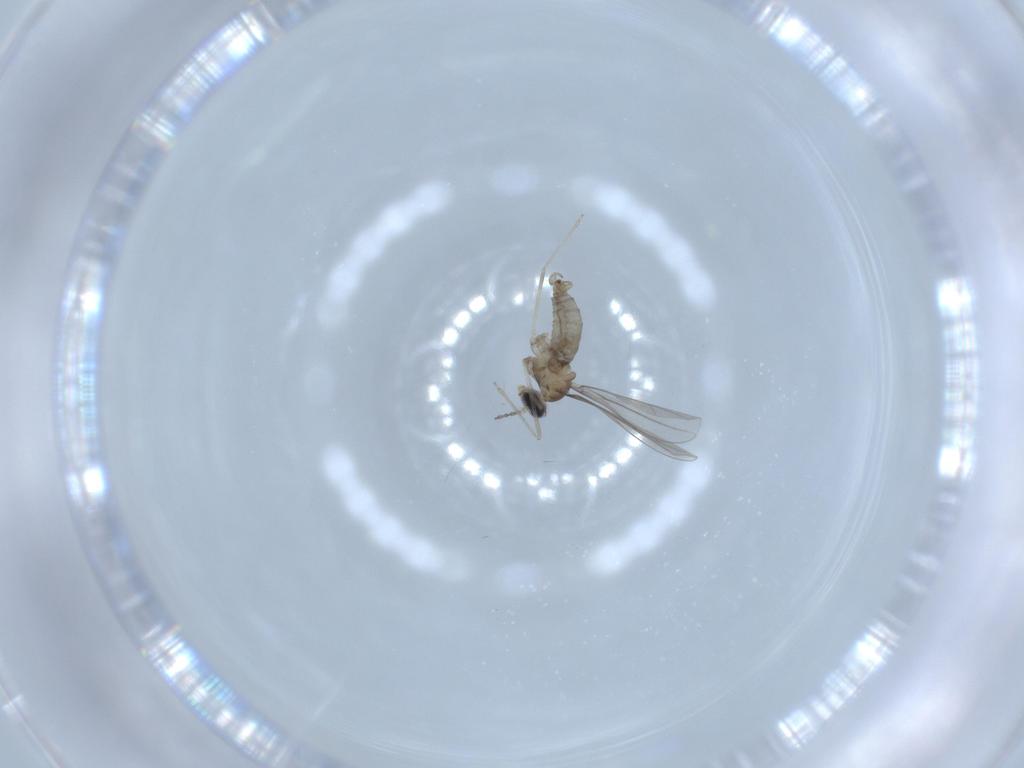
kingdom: Animalia
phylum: Arthropoda
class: Insecta
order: Diptera
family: Cecidomyiidae
